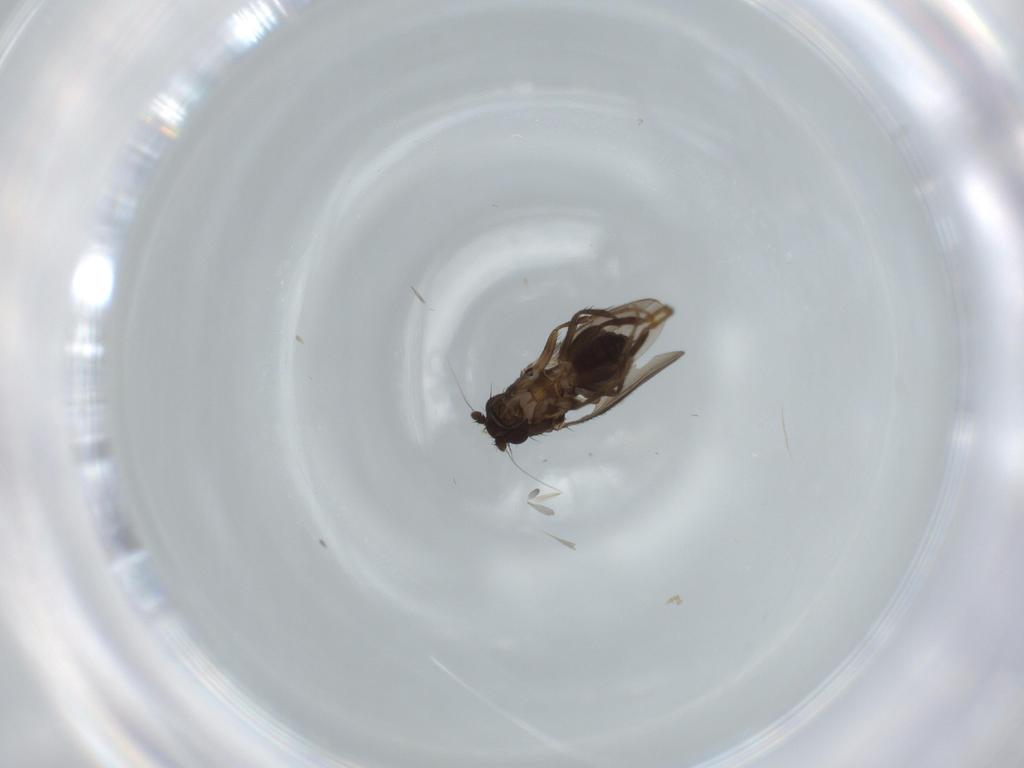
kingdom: Animalia
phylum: Arthropoda
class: Insecta
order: Diptera
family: Sphaeroceridae
